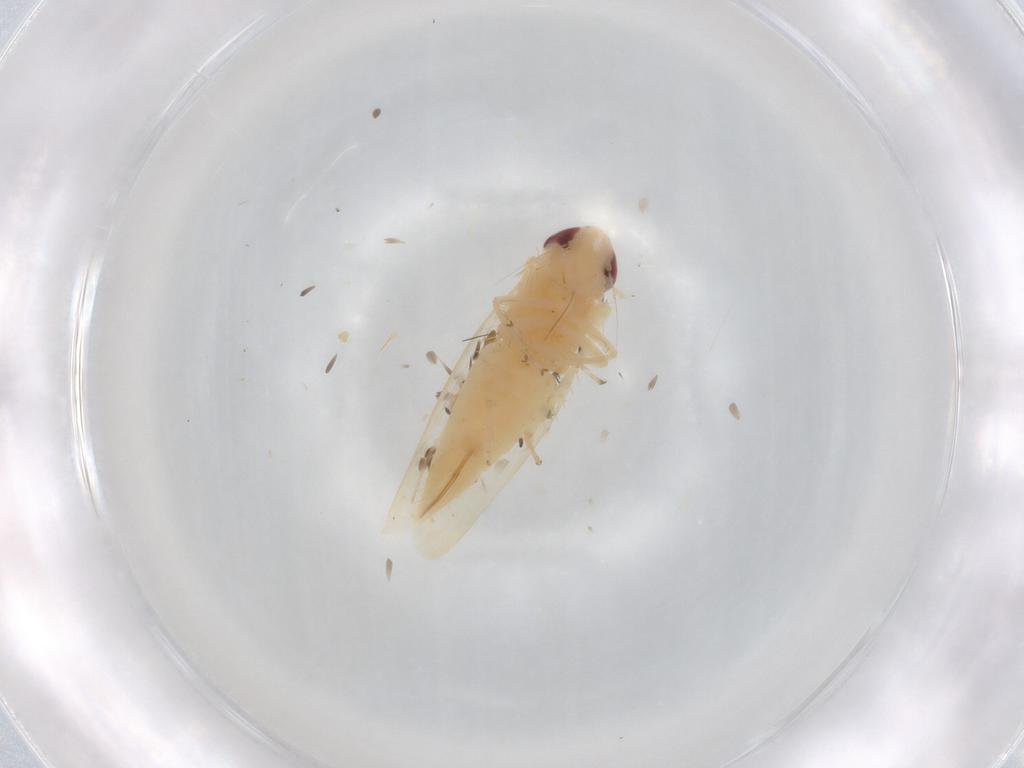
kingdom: Animalia
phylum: Arthropoda
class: Insecta
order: Hemiptera
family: Cicadellidae
